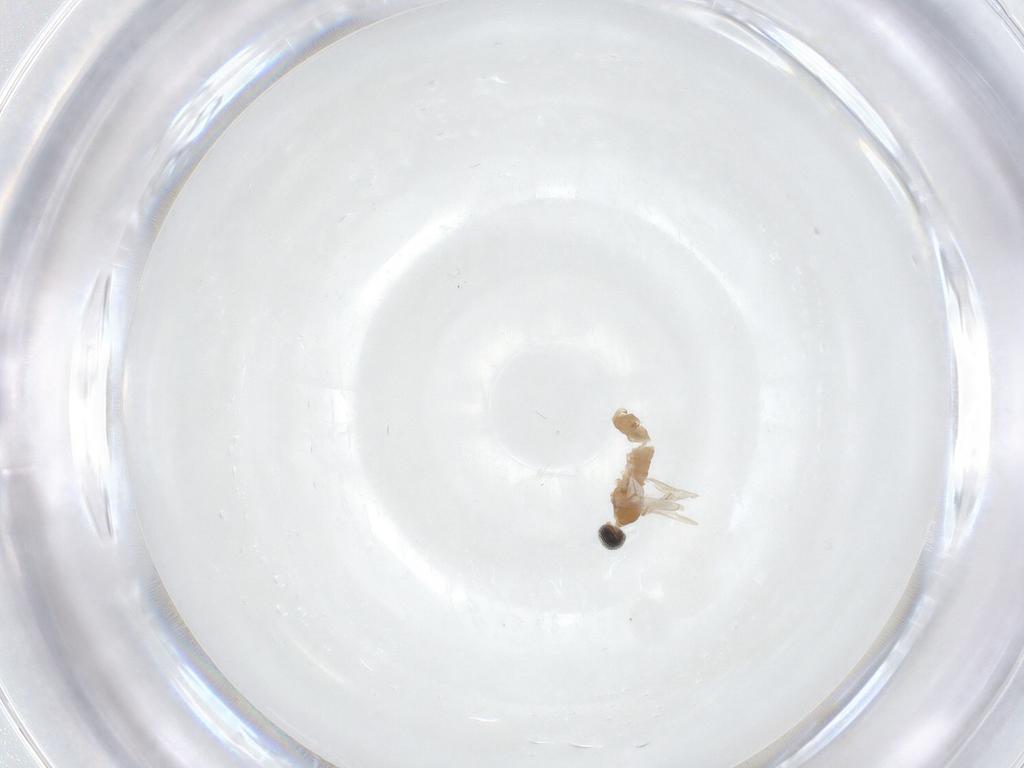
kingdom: Animalia
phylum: Arthropoda
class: Insecta
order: Diptera
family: Cecidomyiidae
